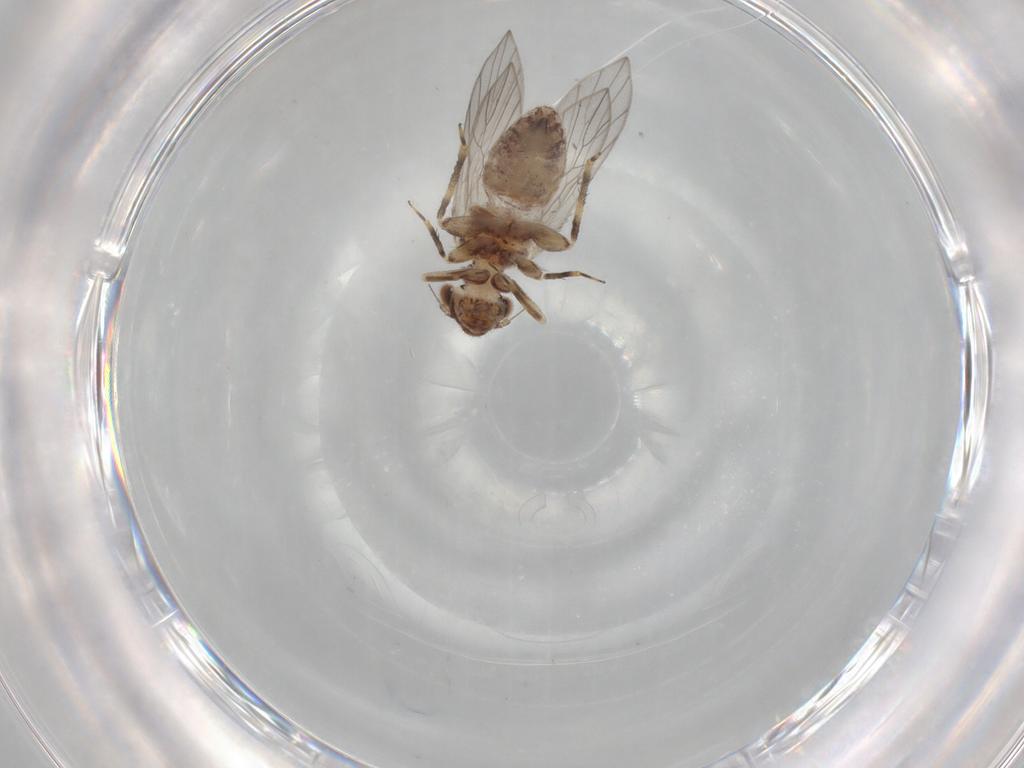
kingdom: Animalia
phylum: Arthropoda
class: Insecta
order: Psocodea
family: Lepidopsocidae
